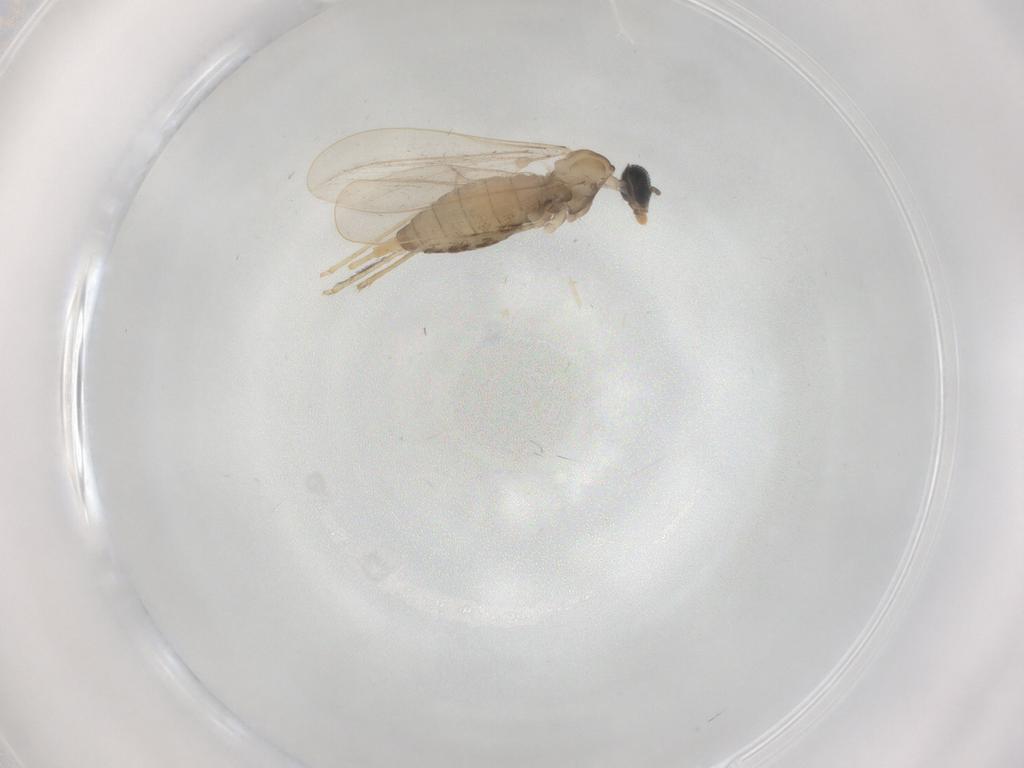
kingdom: Animalia
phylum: Arthropoda
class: Insecta
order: Diptera
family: Cecidomyiidae
